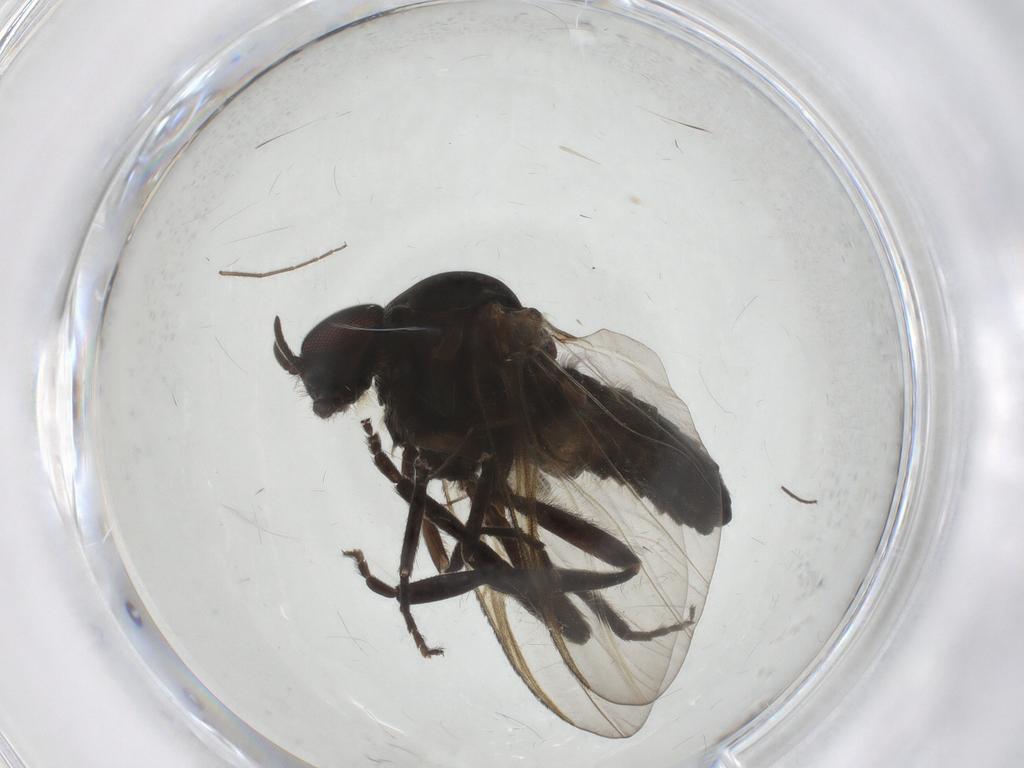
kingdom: Animalia
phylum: Arthropoda
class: Insecta
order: Diptera
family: Simuliidae
